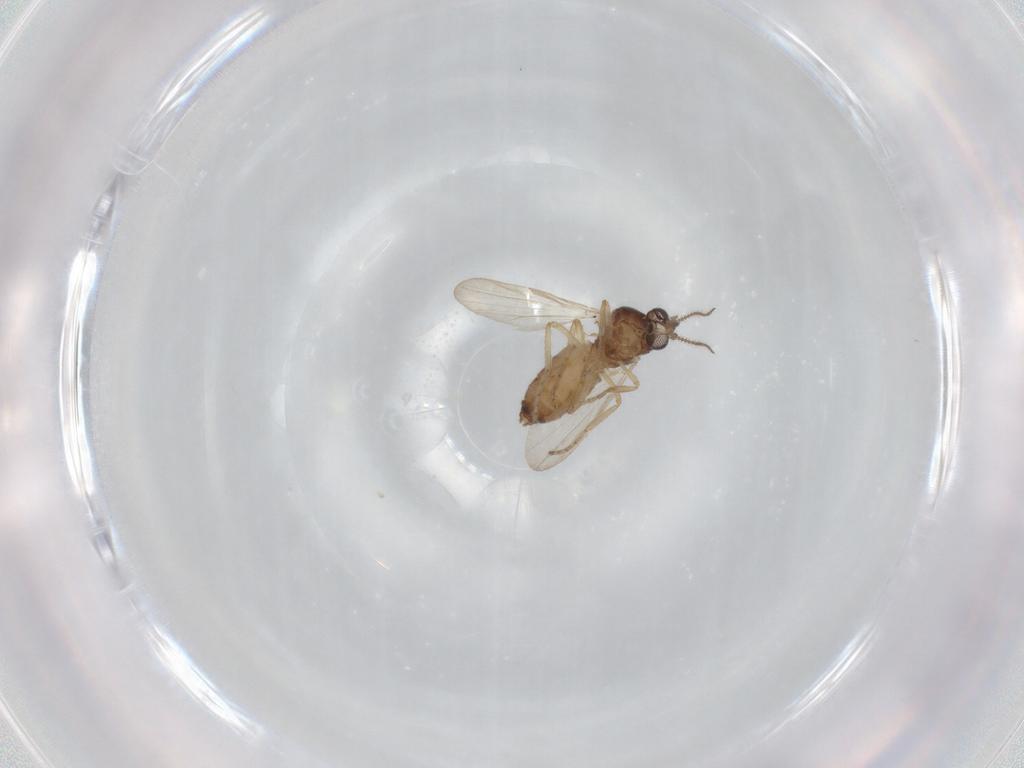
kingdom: Animalia
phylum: Arthropoda
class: Insecta
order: Diptera
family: Ceratopogonidae
